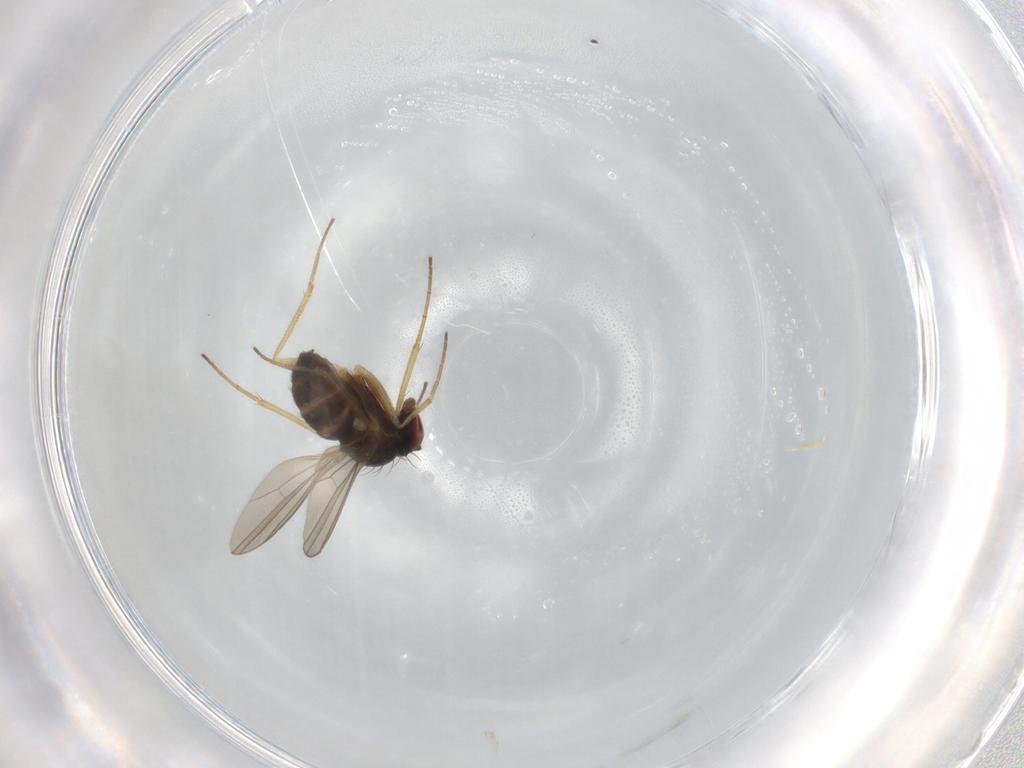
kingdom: Animalia
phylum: Arthropoda
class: Insecta
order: Diptera
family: Dolichopodidae
